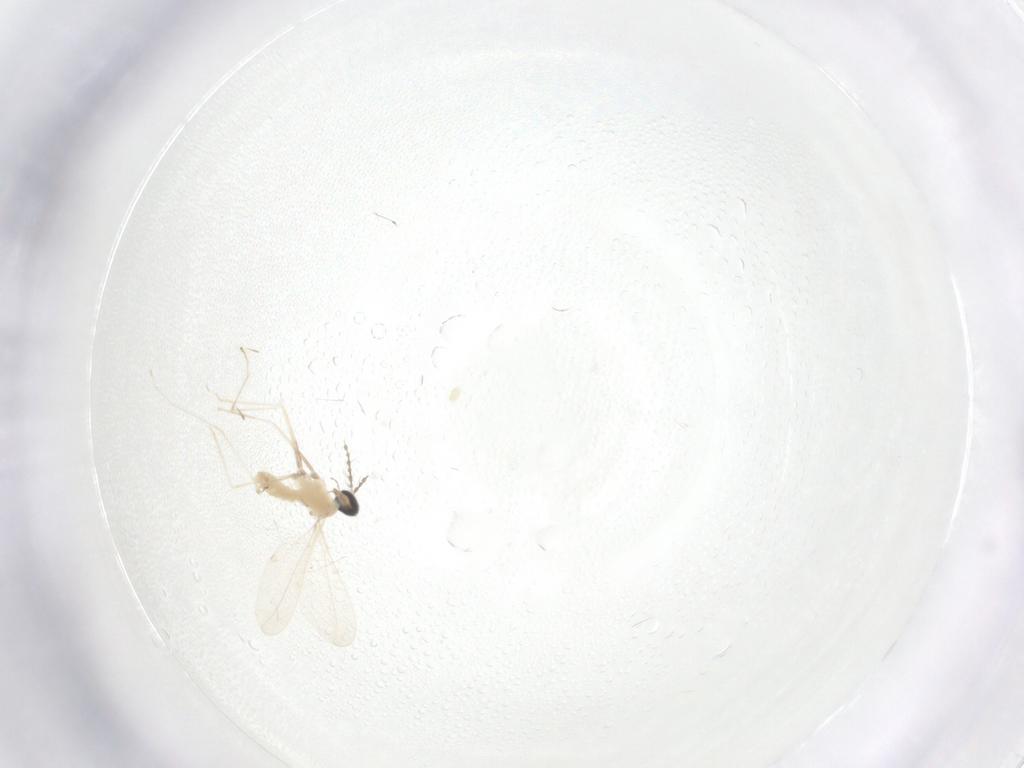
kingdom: Animalia
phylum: Arthropoda
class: Insecta
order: Diptera
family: Cecidomyiidae
